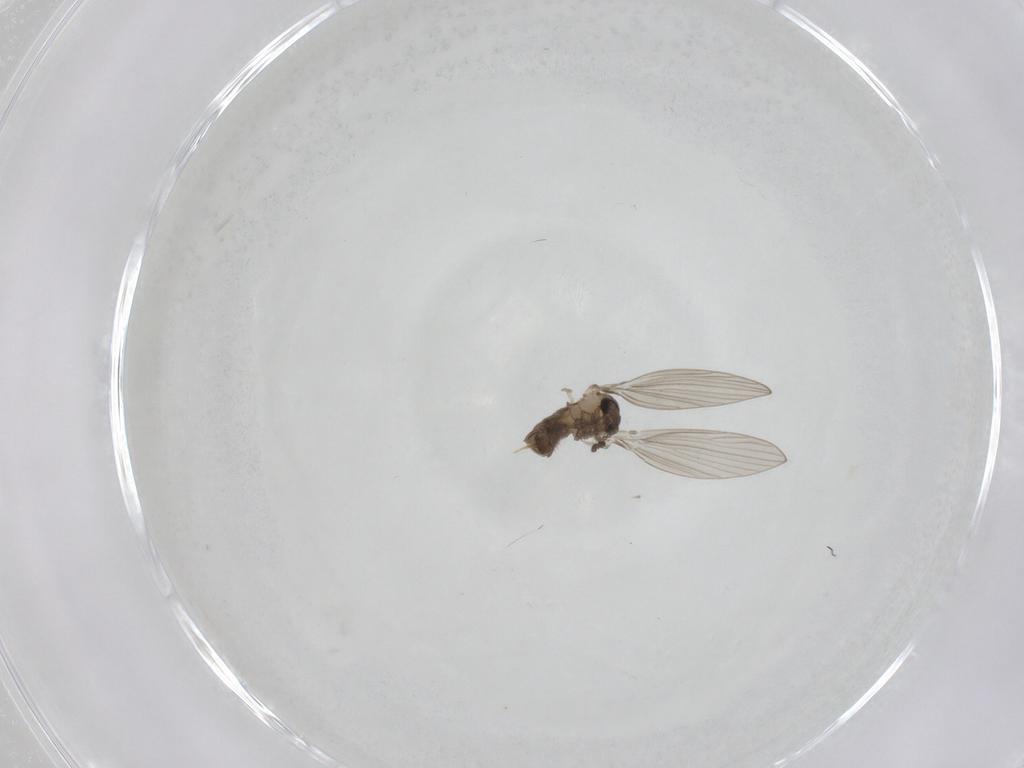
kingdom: Animalia
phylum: Arthropoda
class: Insecta
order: Diptera
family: Psychodidae
